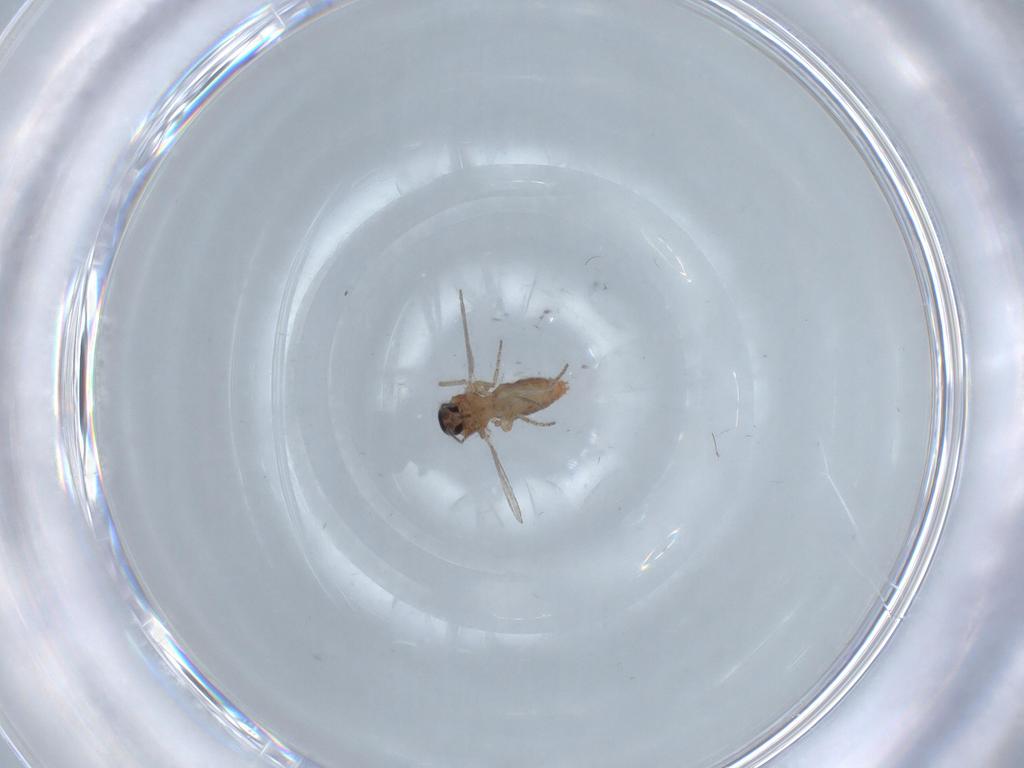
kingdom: Animalia
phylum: Arthropoda
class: Insecta
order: Diptera
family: Ceratopogonidae
